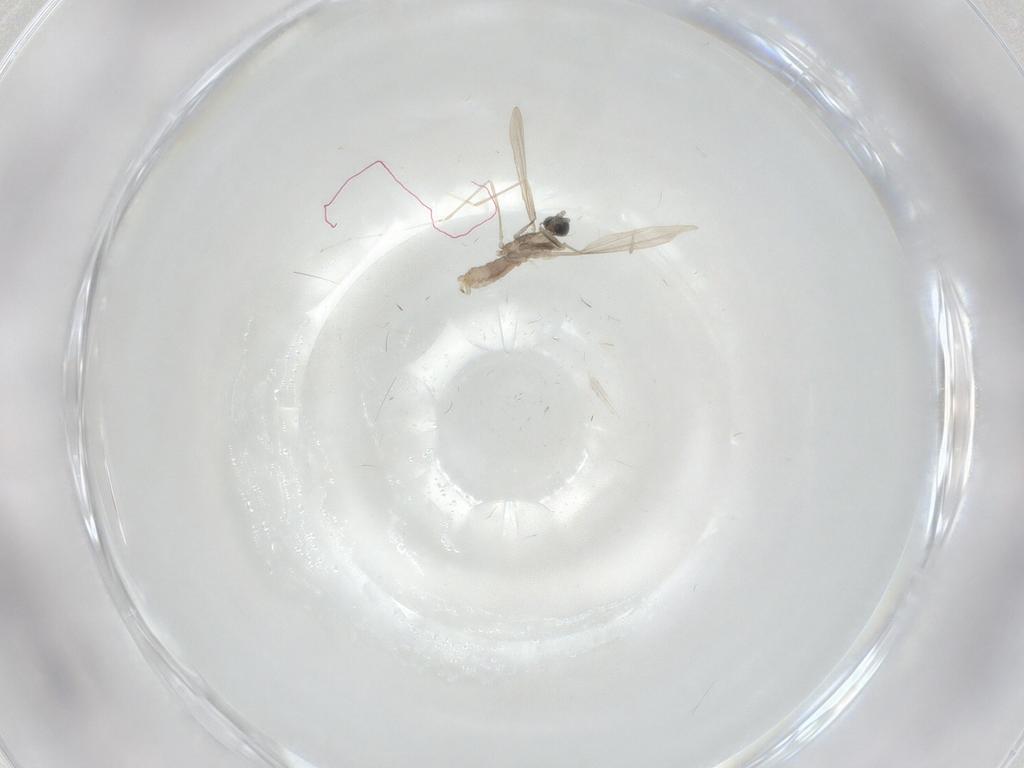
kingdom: Animalia
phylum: Arthropoda
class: Insecta
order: Diptera
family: Cecidomyiidae
